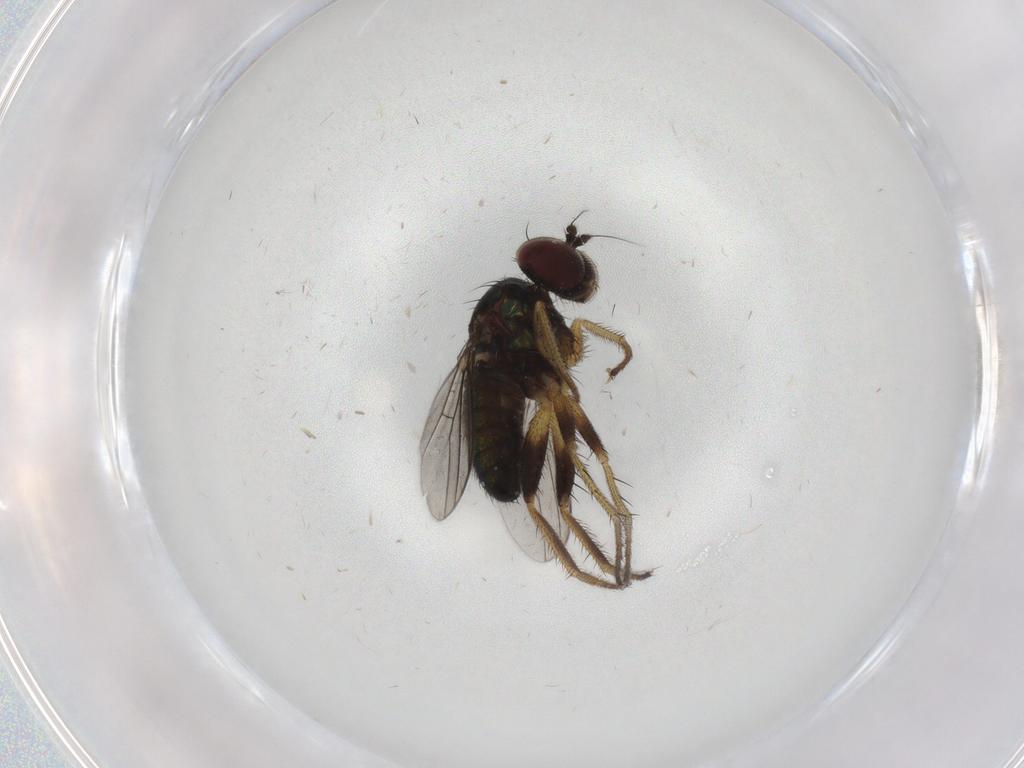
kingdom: Animalia
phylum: Arthropoda
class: Insecta
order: Diptera
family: Dolichopodidae
